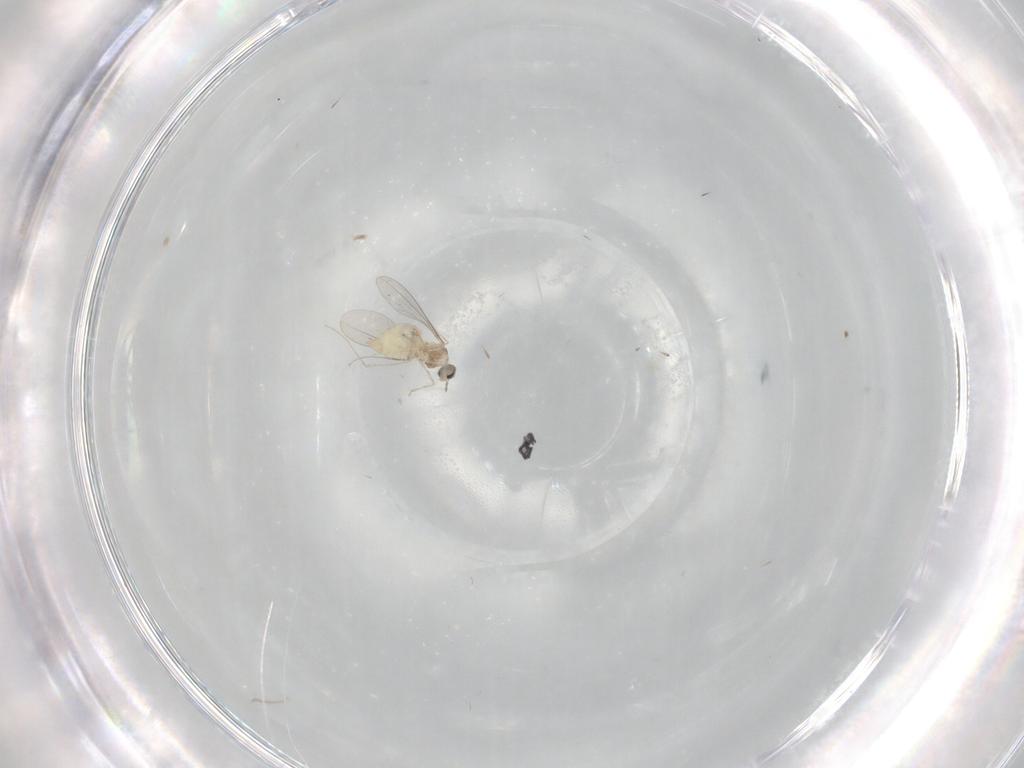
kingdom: Animalia
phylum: Arthropoda
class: Insecta
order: Diptera
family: Cecidomyiidae
